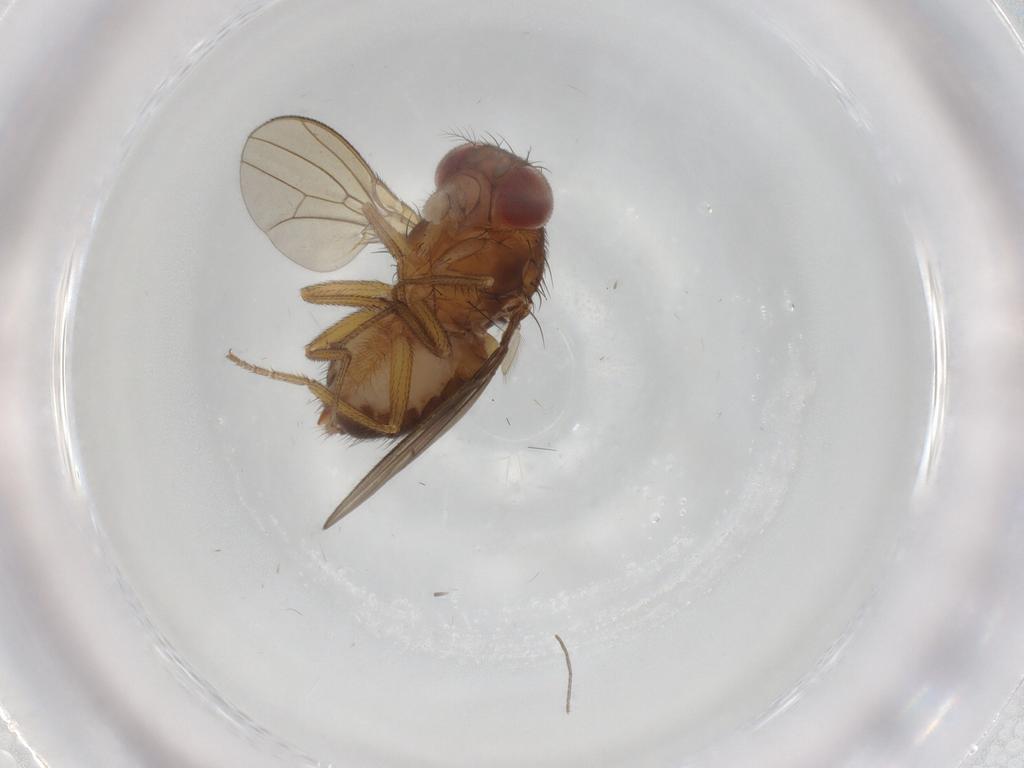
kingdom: Animalia
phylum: Arthropoda
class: Insecta
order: Diptera
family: Drosophilidae
